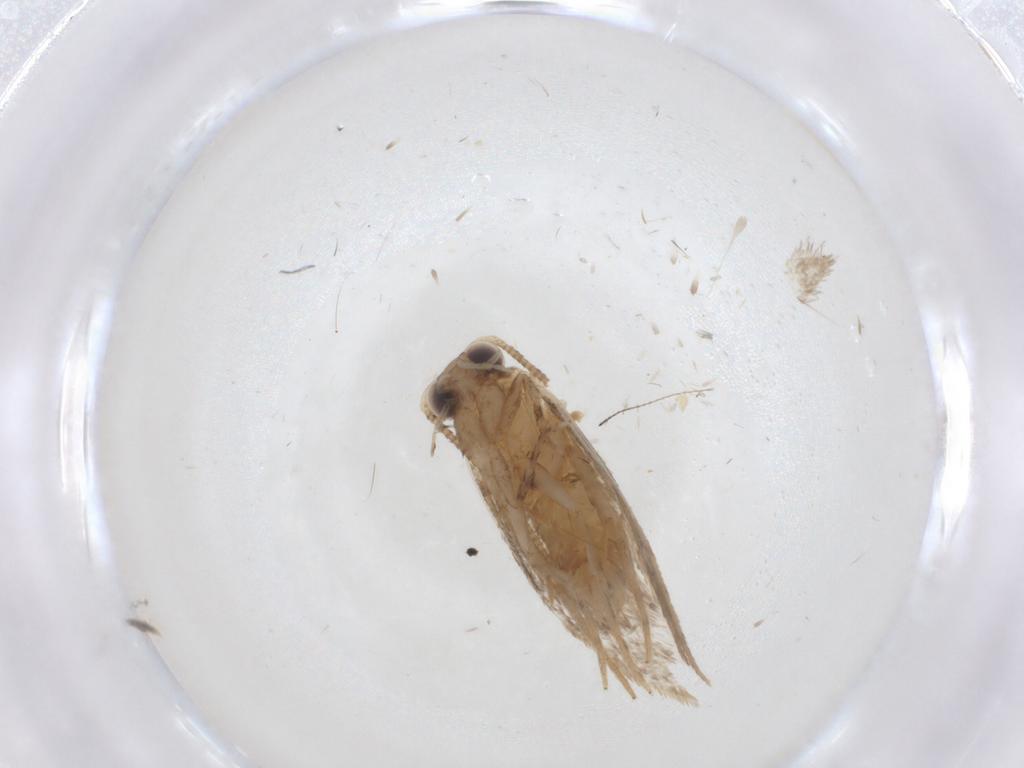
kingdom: Animalia
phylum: Arthropoda
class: Insecta
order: Lepidoptera
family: Tineidae
